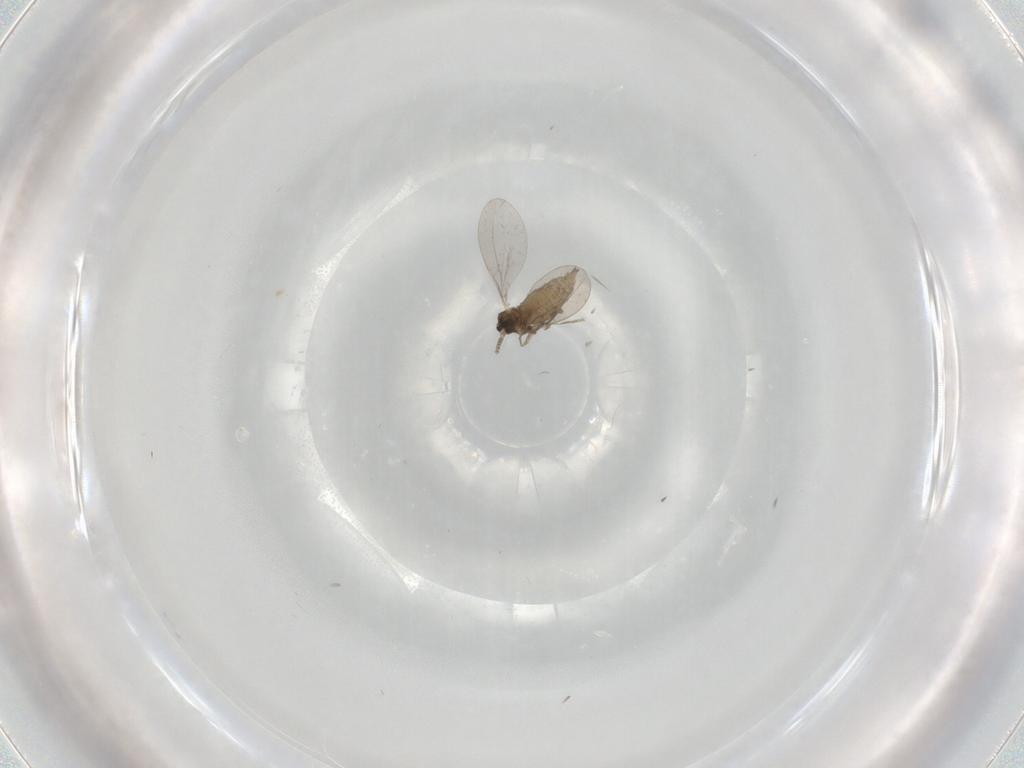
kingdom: Animalia
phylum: Arthropoda
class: Insecta
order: Diptera
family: Cecidomyiidae
